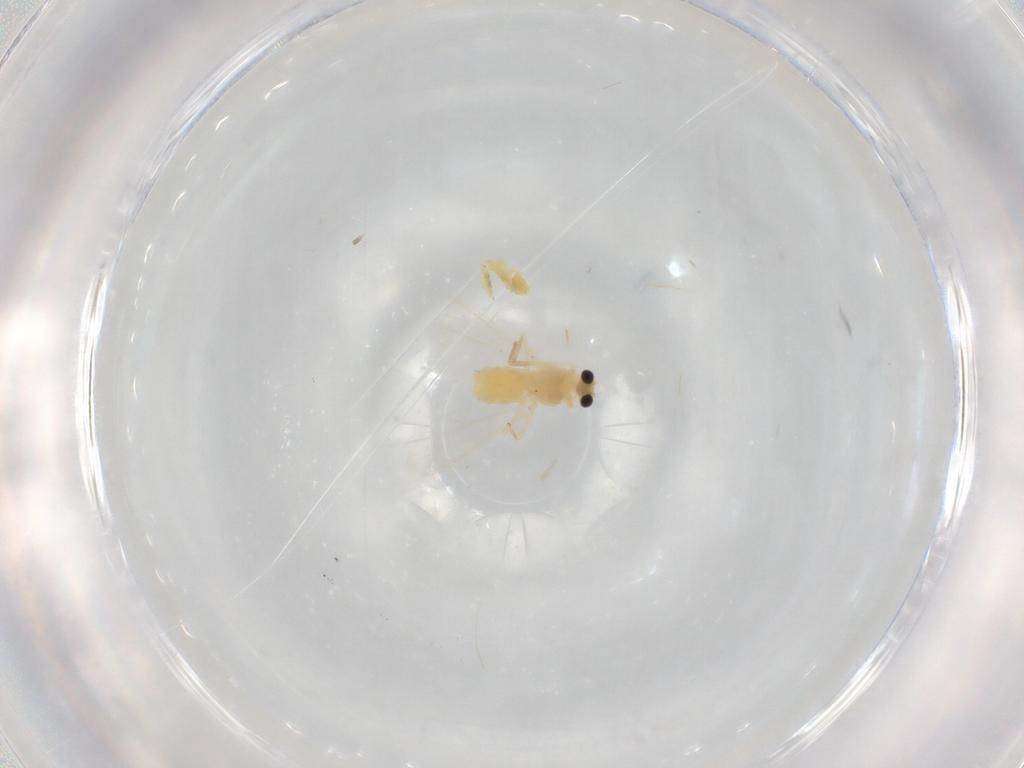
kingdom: Animalia
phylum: Arthropoda
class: Insecta
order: Diptera
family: Chironomidae
